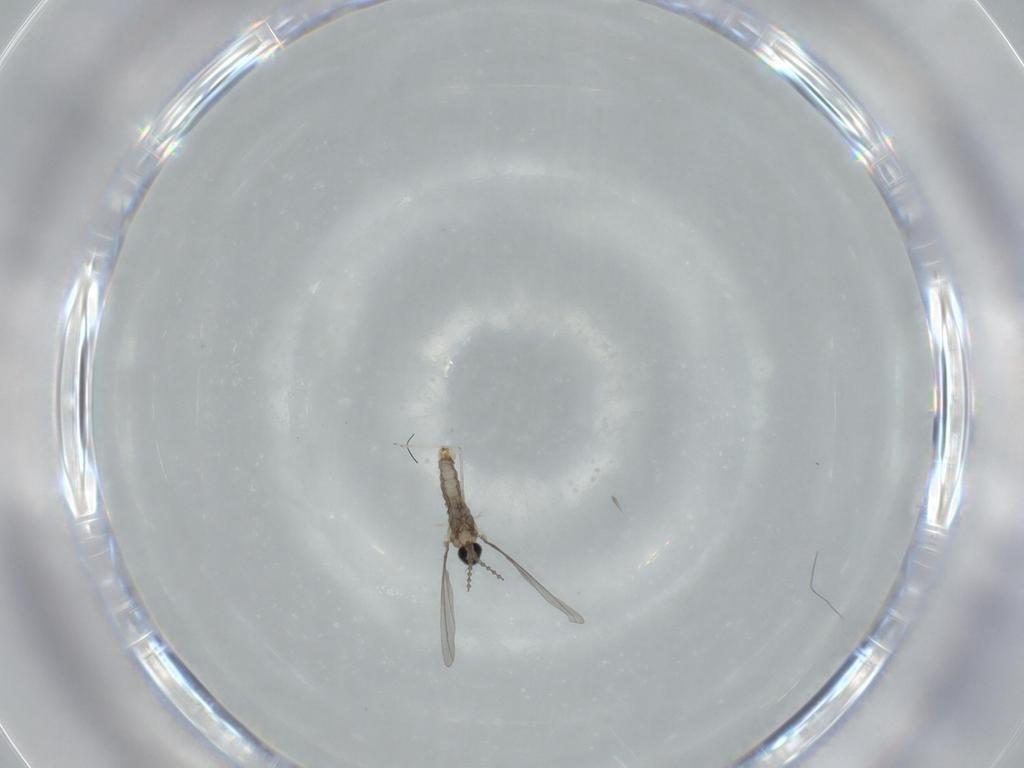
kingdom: Animalia
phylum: Arthropoda
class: Insecta
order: Diptera
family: Cecidomyiidae
